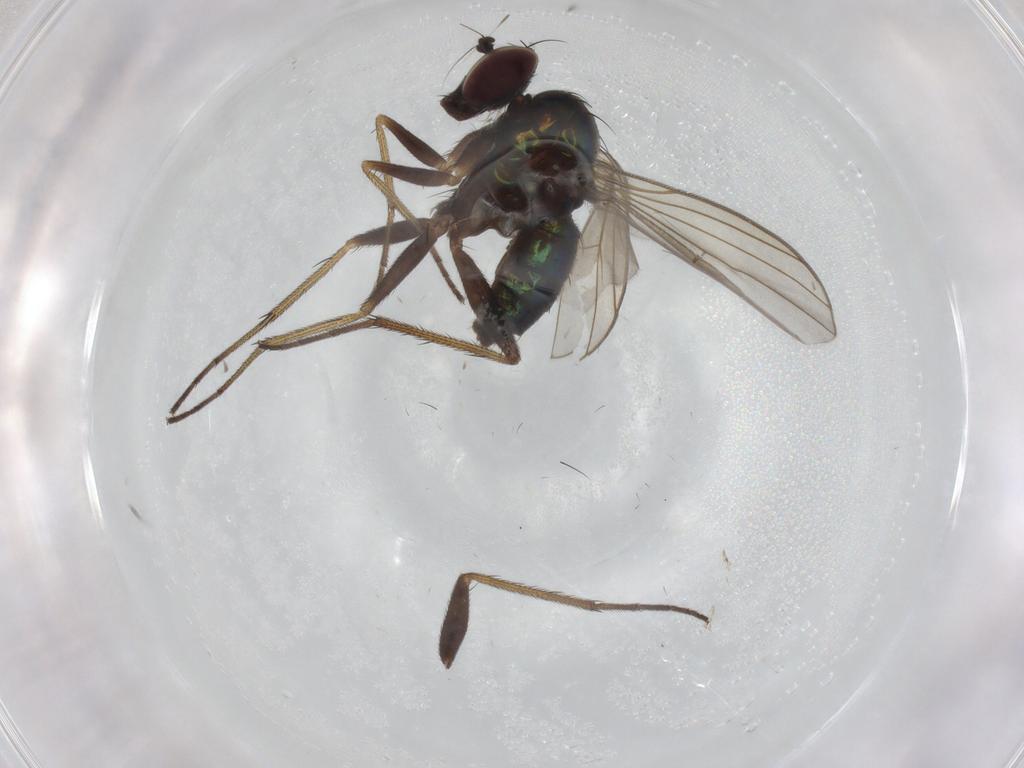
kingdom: Animalia
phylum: Arthropoda
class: Insecta
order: Diptera
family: Dolichopodidae
